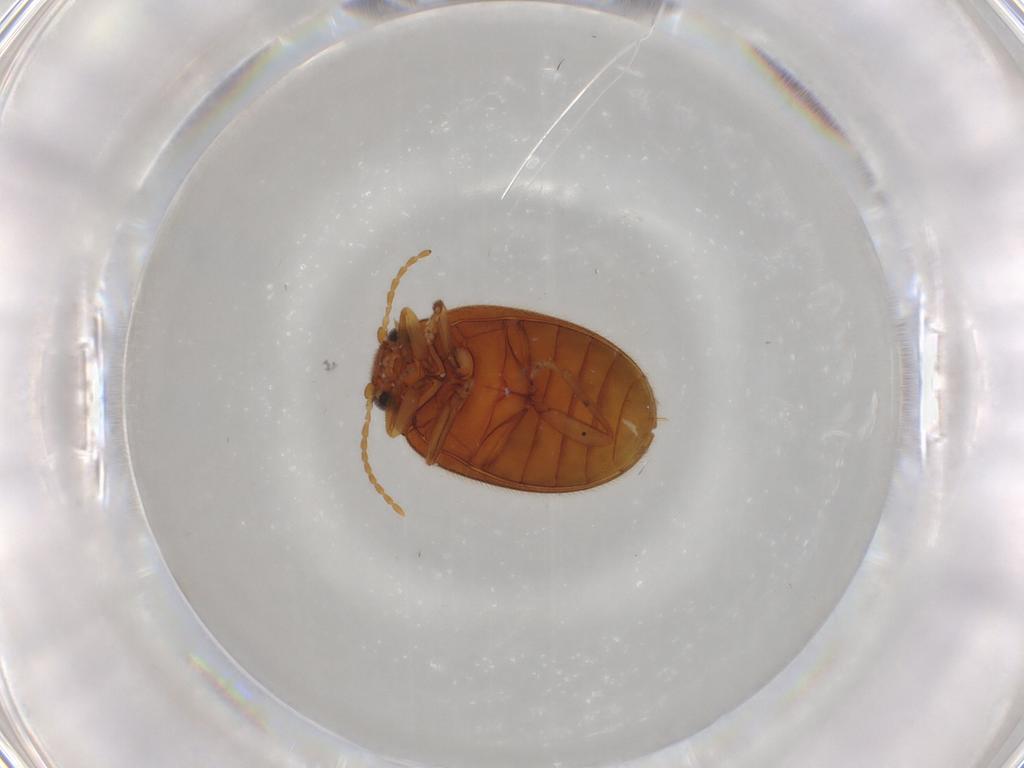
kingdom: Animalia
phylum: Arthropoda
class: Insecta
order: Coleoptera
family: Scirtidae
